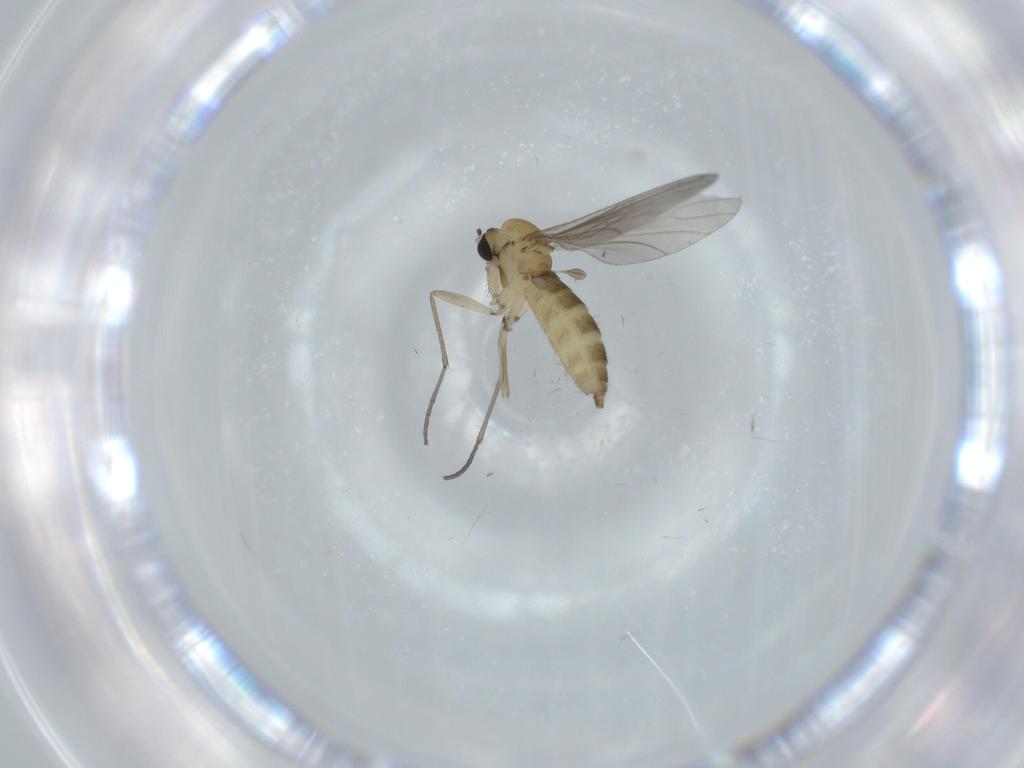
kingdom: Animalia
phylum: Arthropoda
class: Insecta
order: Diptera
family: Sciaridae
